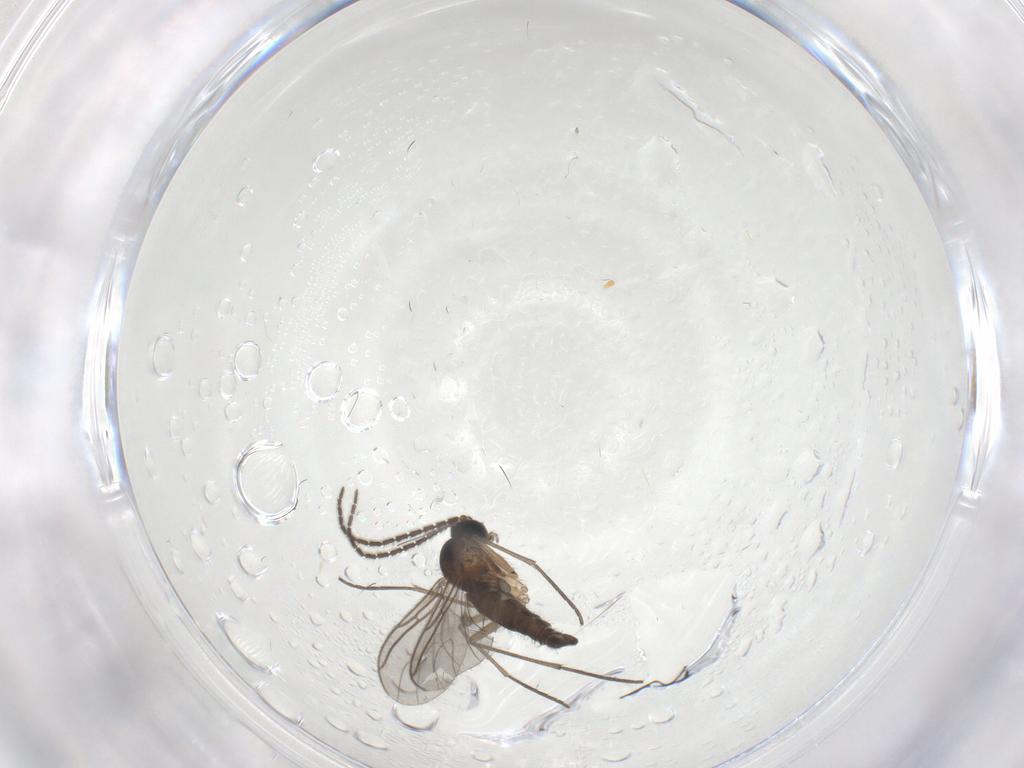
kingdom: Animalia
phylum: Arthropoda
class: Insecta
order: Diptera
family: Sciaridae
